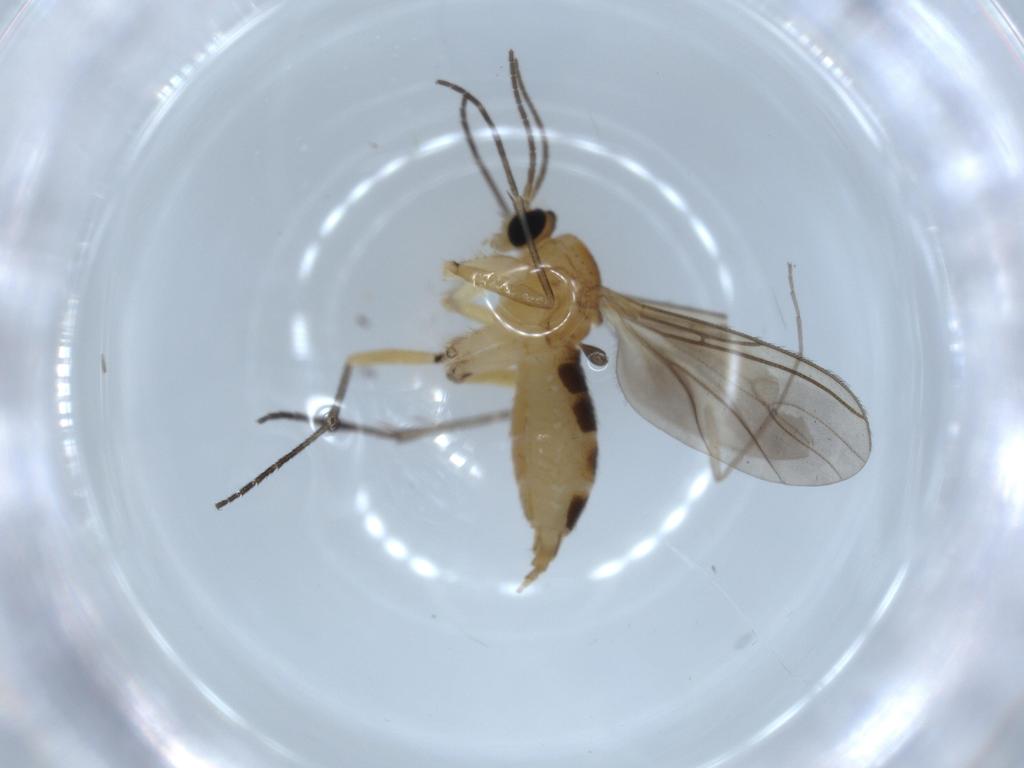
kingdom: Animalia
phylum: Arthropoda
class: Insecta
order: Diptera
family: Sciaridae
